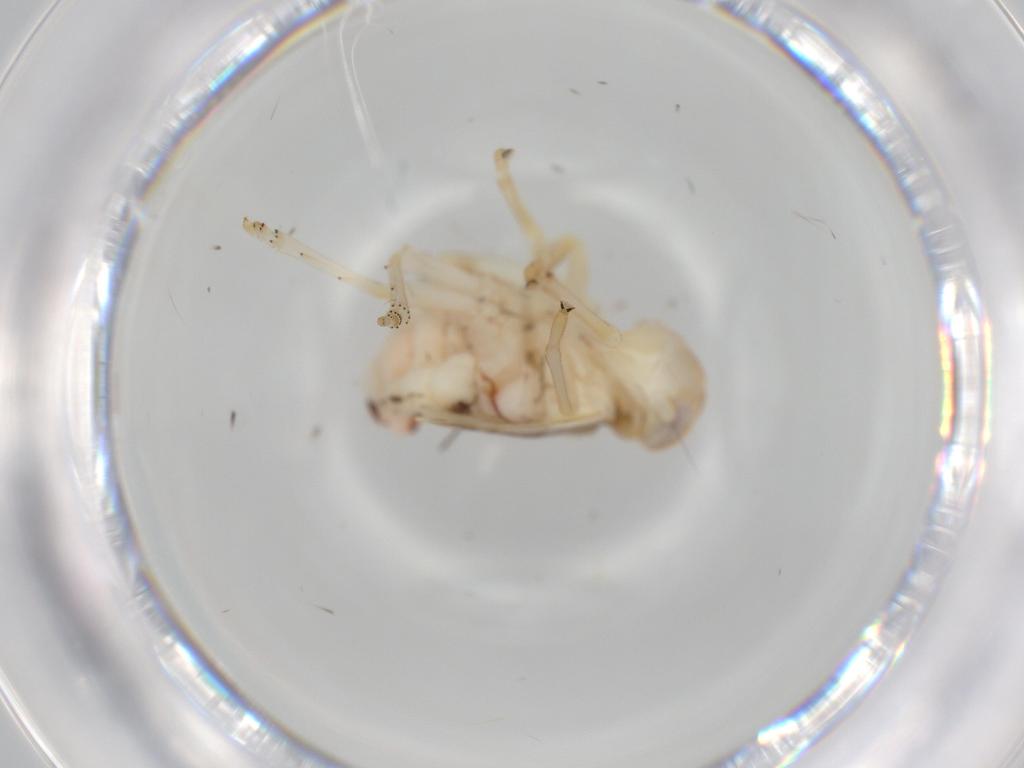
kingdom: Animalia
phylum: Arthropoda
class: Insecta
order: Hemiptera
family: Nogodinidae
